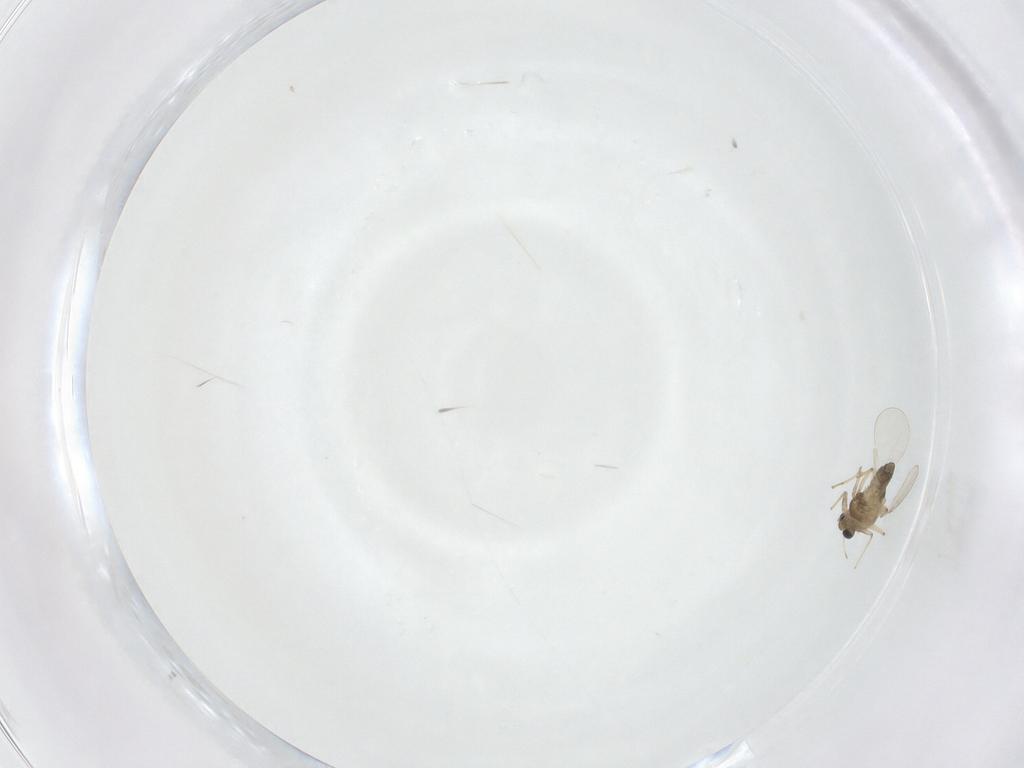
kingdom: Animalia
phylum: Arthropoda
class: Insecta
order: Diptera
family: Chironomidae
